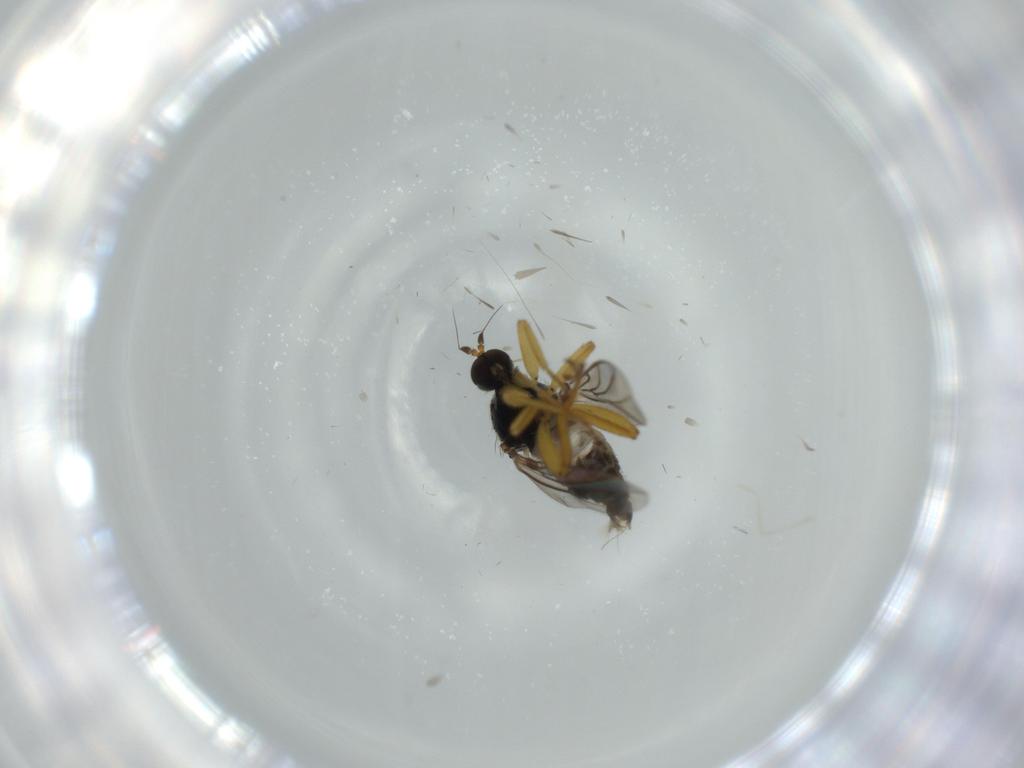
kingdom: Animalia
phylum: Arthropoda
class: Insecta
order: Diptera
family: Hybotidae
